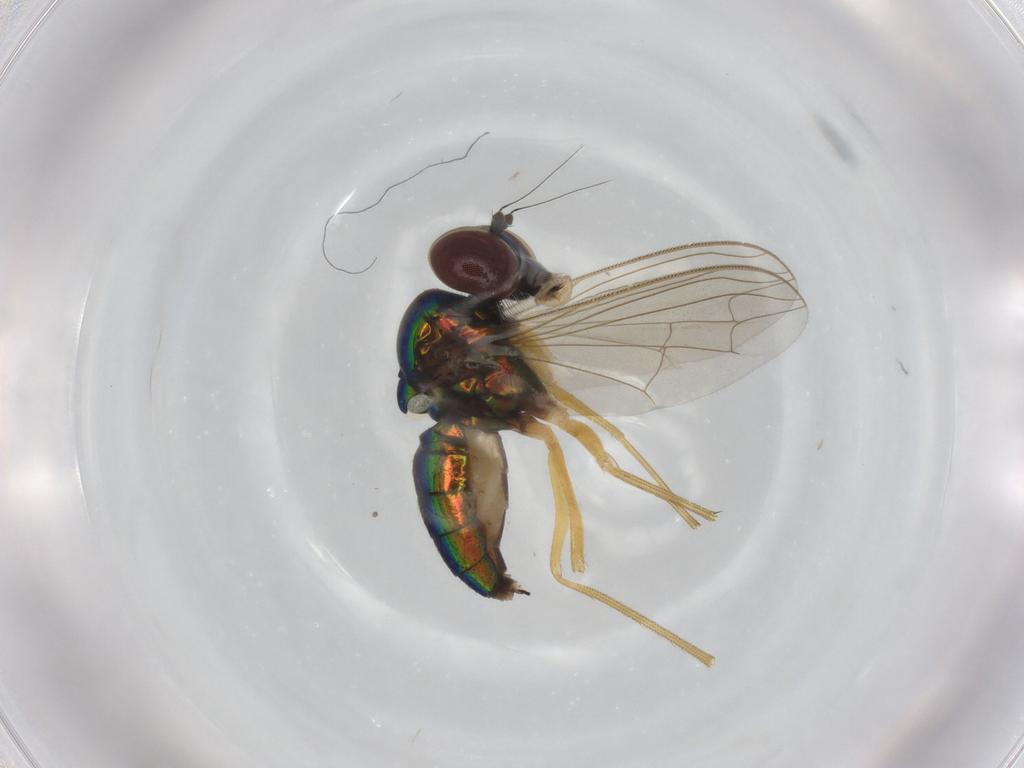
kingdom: Animalia
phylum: Arthropoda
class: Insecta
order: Diptera
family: Dolichopodidae
